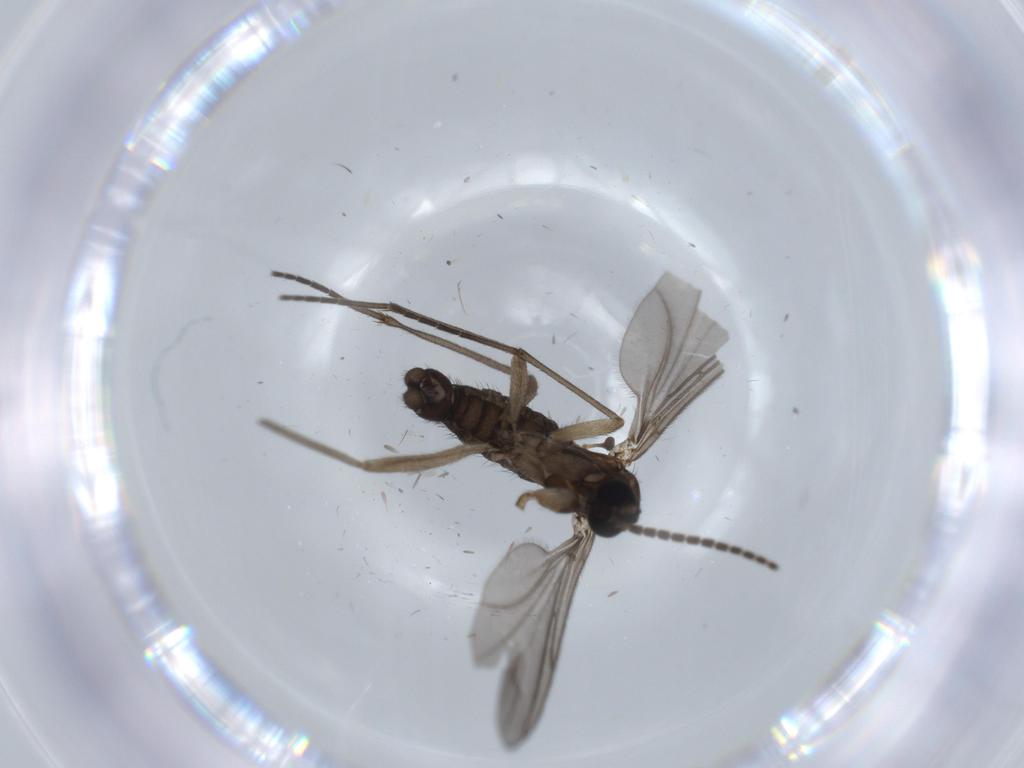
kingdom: Animalia
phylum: Arthropoda
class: Insecta
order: Diptera
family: Sciaridae
